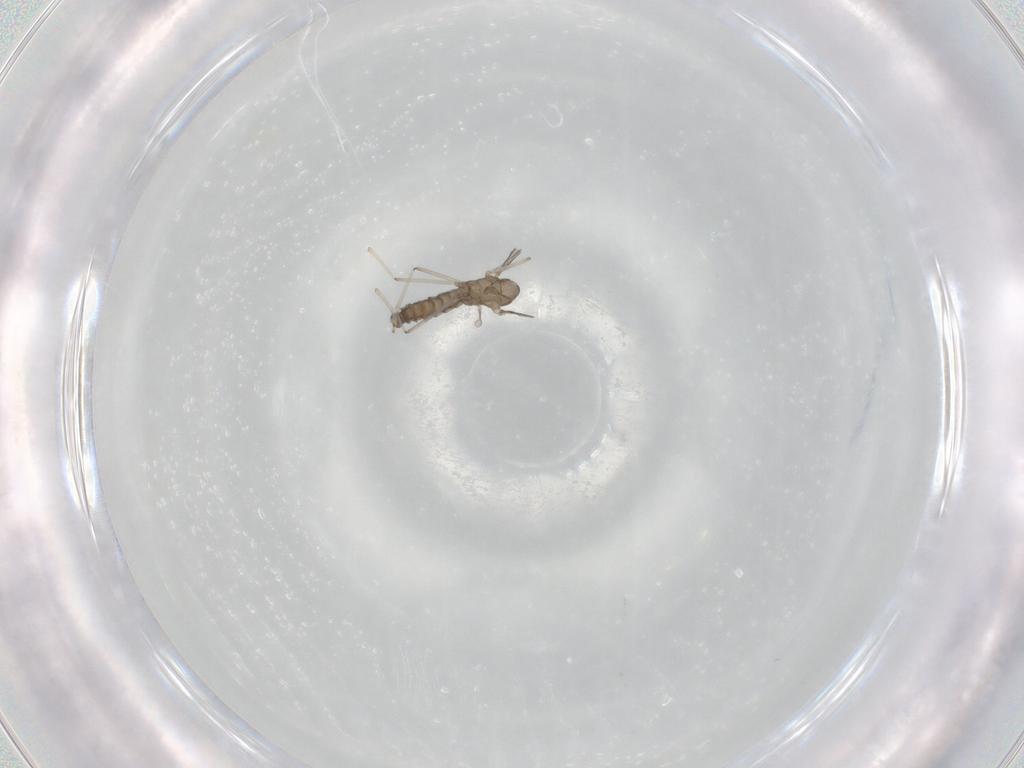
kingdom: Animalia
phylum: Arthropoda
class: Insecta
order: Diptera
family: Cecidomyiidae
